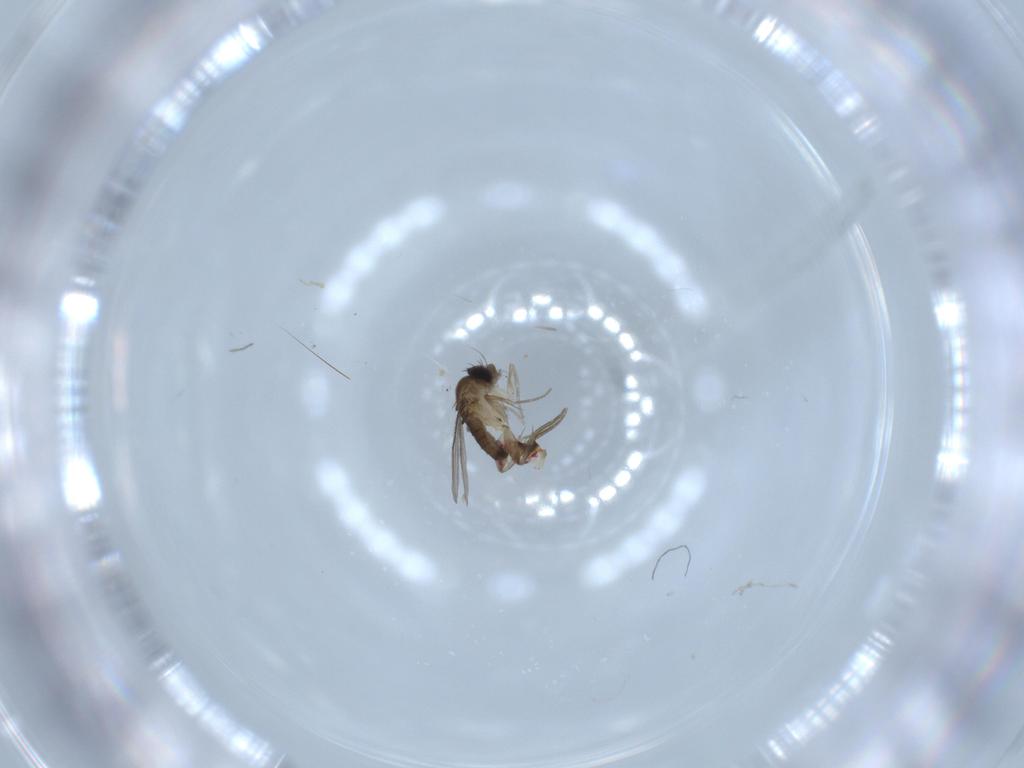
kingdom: Animalia
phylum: Arthropoda
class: Insecta
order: Diptera
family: Phoridae
